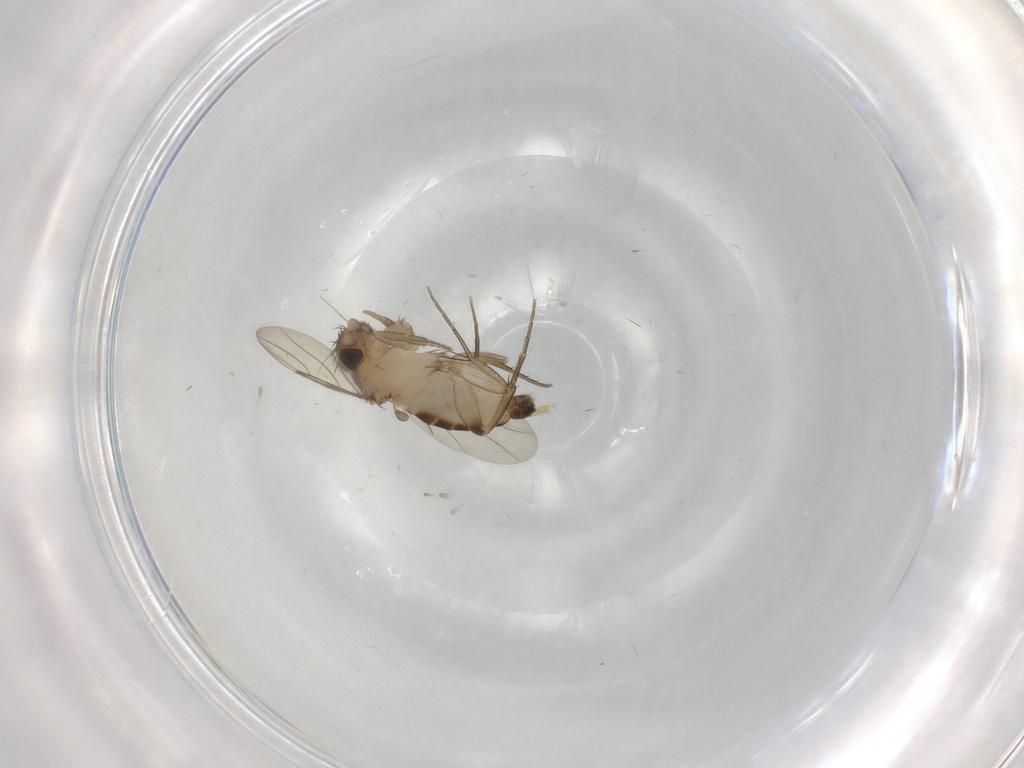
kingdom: Animalia
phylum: Arthropoda
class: Insecta
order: Diptera
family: Phoridae
